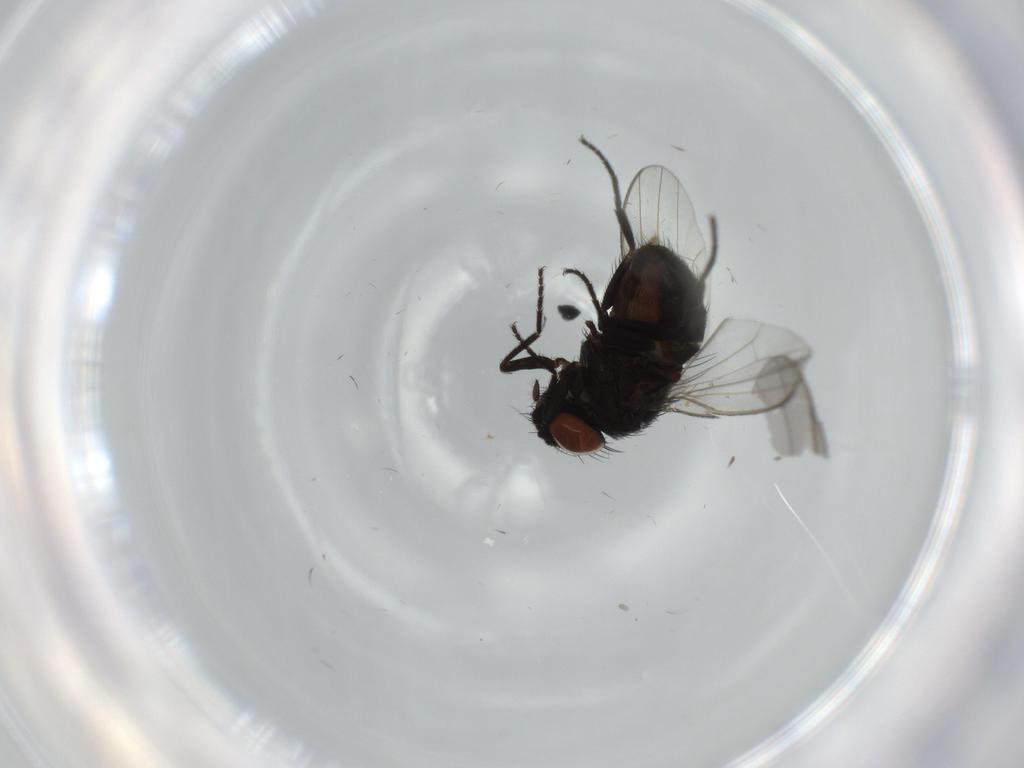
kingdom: Animalia
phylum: Arthropoda
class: Insecta
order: Diptera
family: Milichiidae
